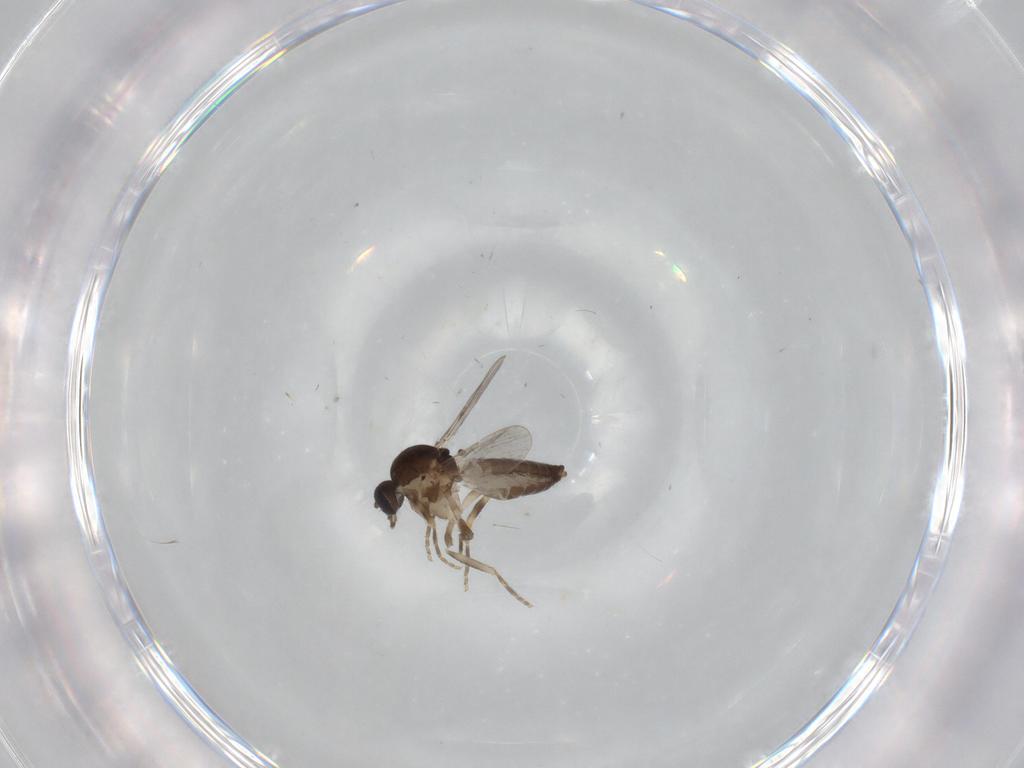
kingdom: Animalia
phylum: Arthropoda
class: Insecta
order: Diptera
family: Ceratopogonidae
